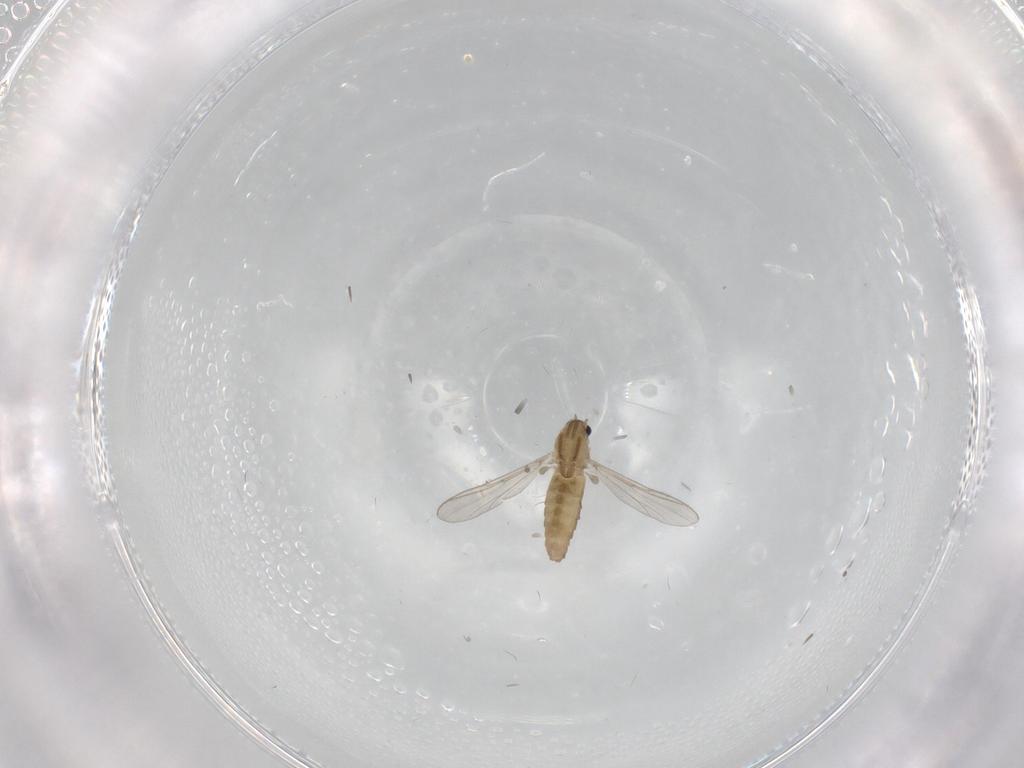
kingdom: Animalia
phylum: Arthropoda
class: Insecta
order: Diptera
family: Chironomidae
